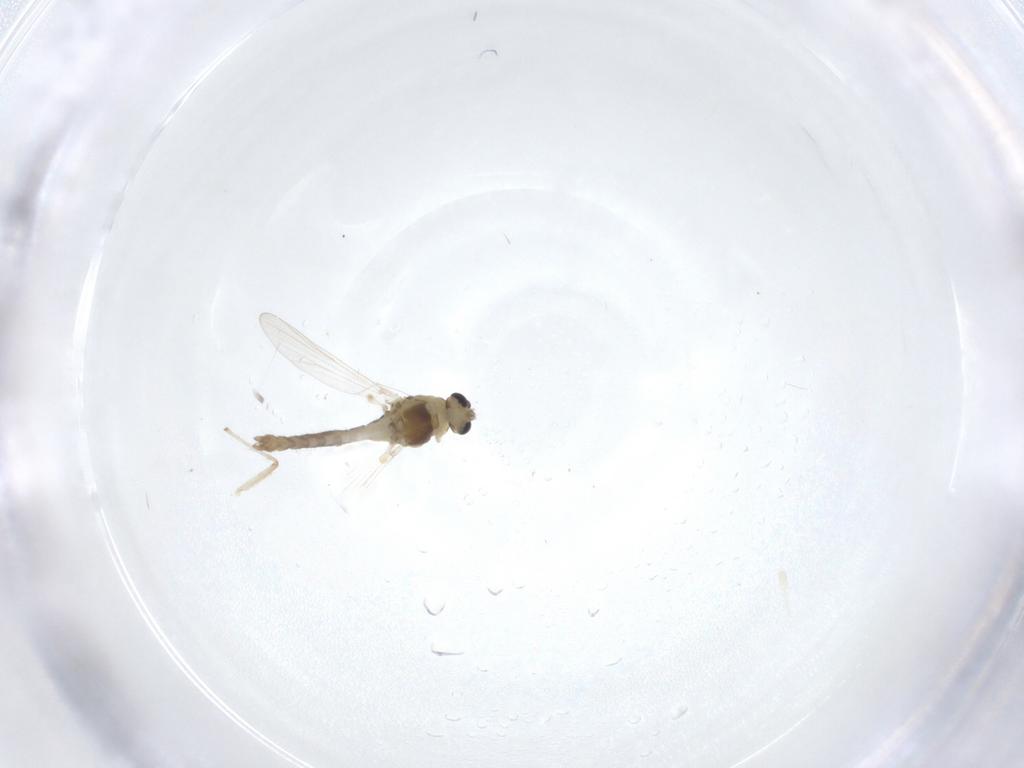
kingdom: Animalia
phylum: Arthropoda
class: Insecta
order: Diptera
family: Chironomidae
